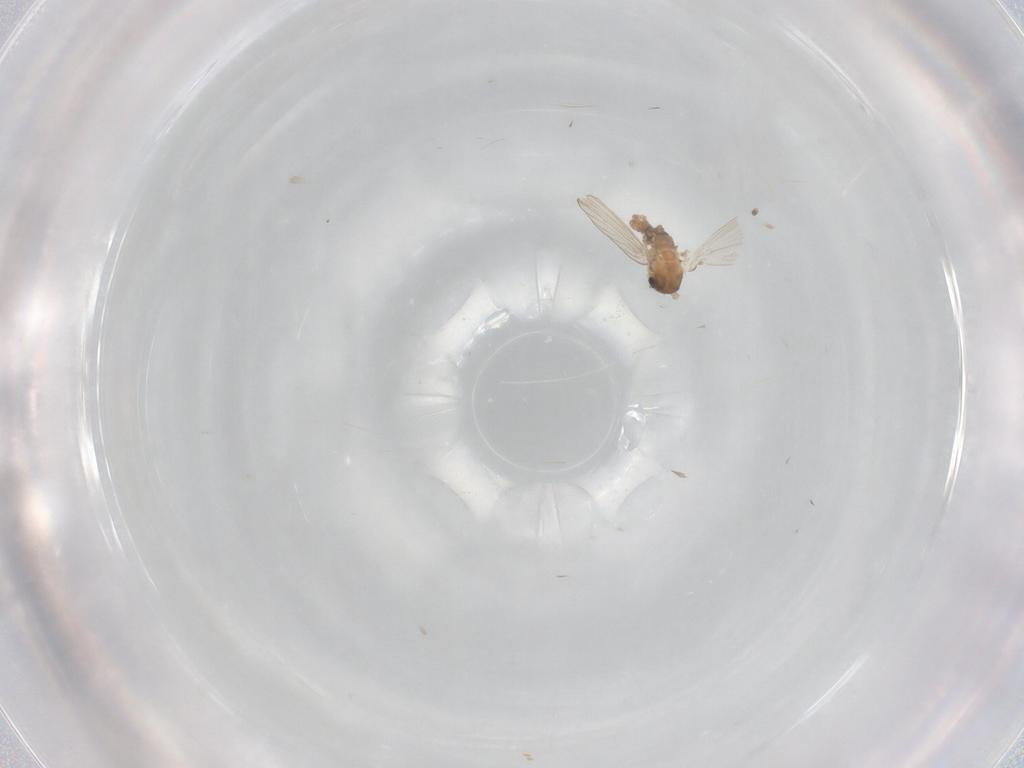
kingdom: Animalia
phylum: Arthropoda
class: Insecta
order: Diptera
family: Psychodidae
